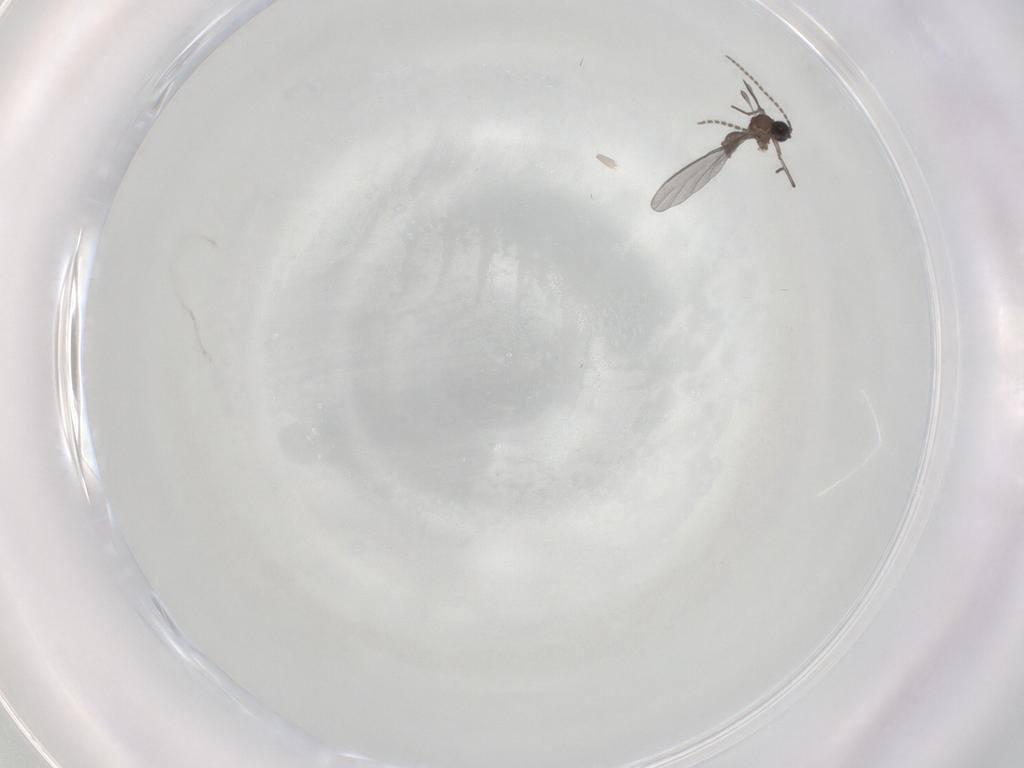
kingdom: Animalia
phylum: Arthropoda
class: Insecta
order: Diptera
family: Sciaridae
